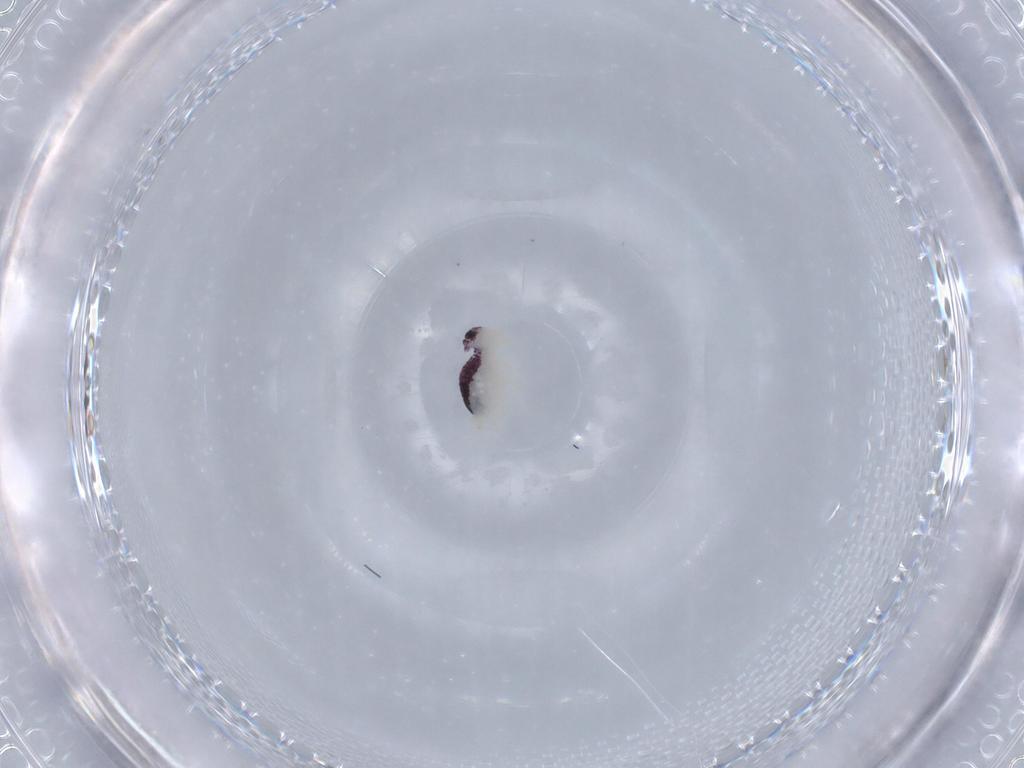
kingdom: Animalia
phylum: Arthropoda
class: Collembola
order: Symphypleona
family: Bourletiellidae
